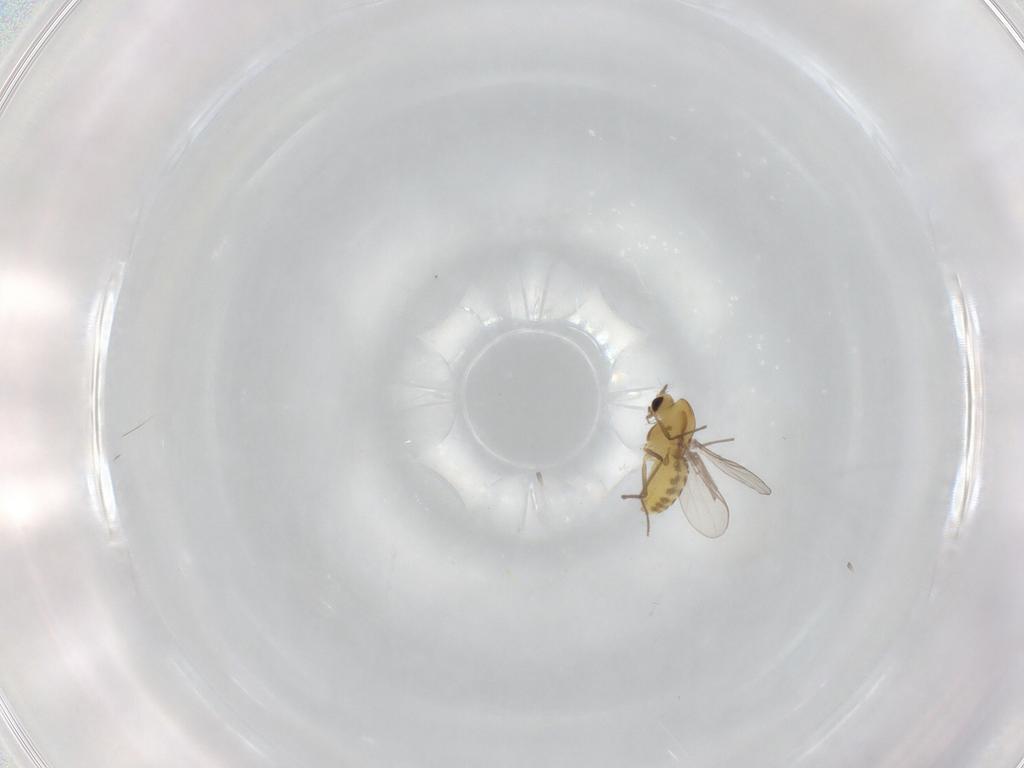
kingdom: Animalia
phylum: Arthropoda
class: Insecta
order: Diptera
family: Chironomidae
